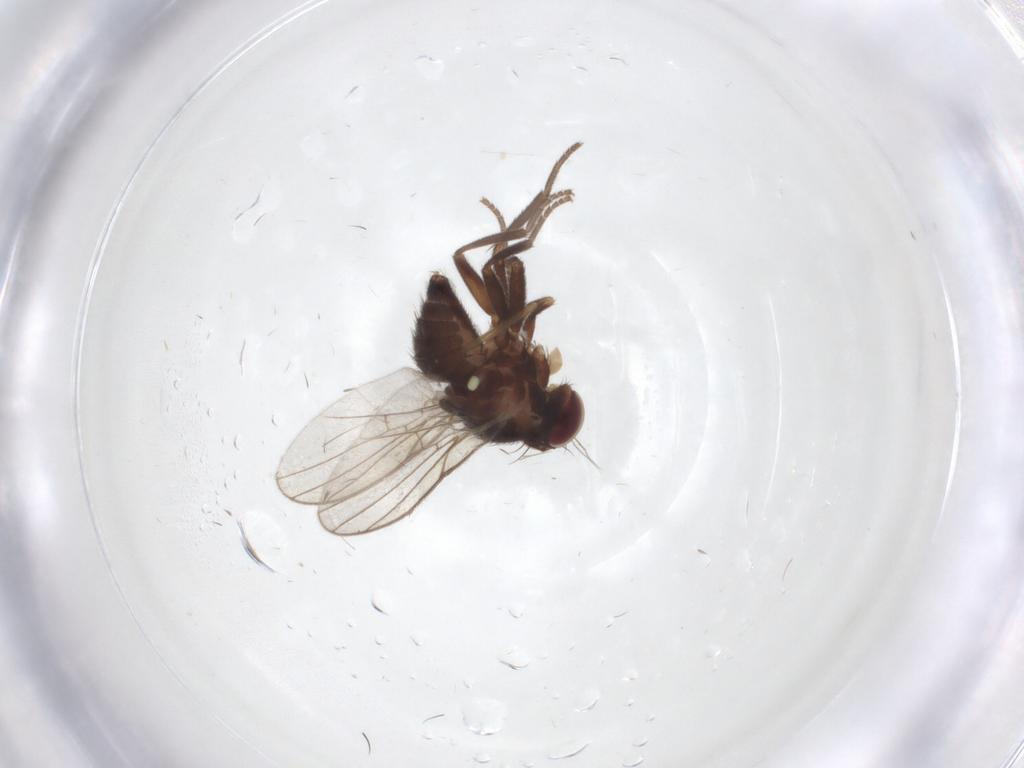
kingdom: Animalia
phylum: Arthropoda
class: Insecta
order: Diptera
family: Agromyzidae
